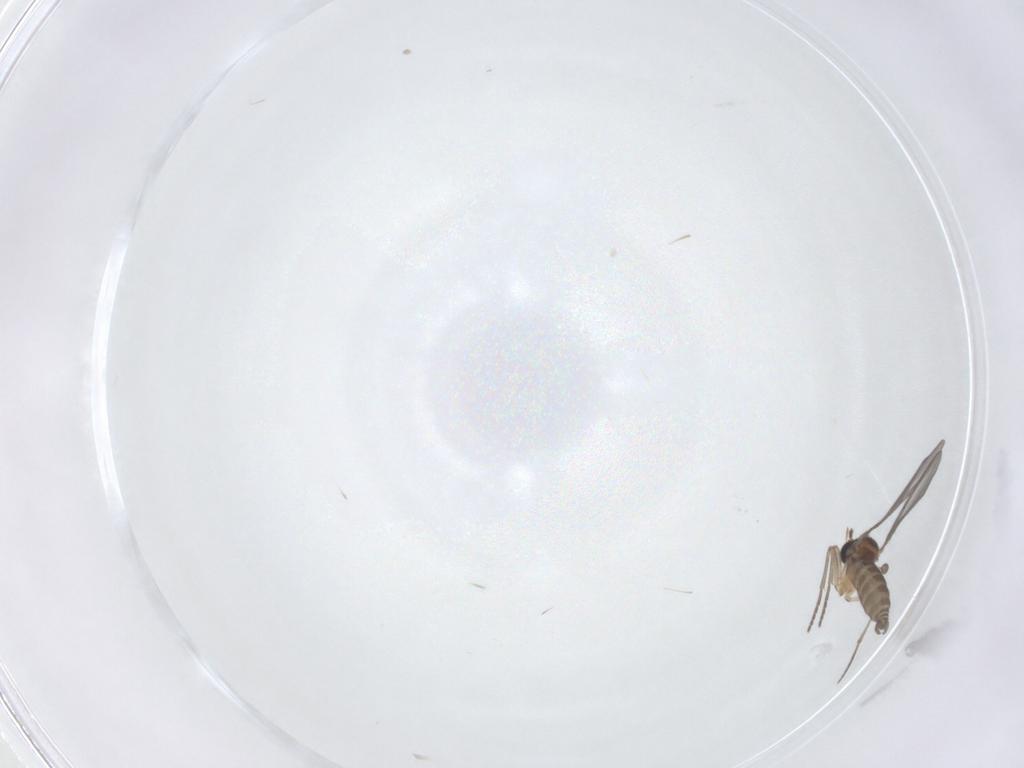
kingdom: Animalia
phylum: Arthropoda
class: Insecta
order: Diptera
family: Sciaridae
